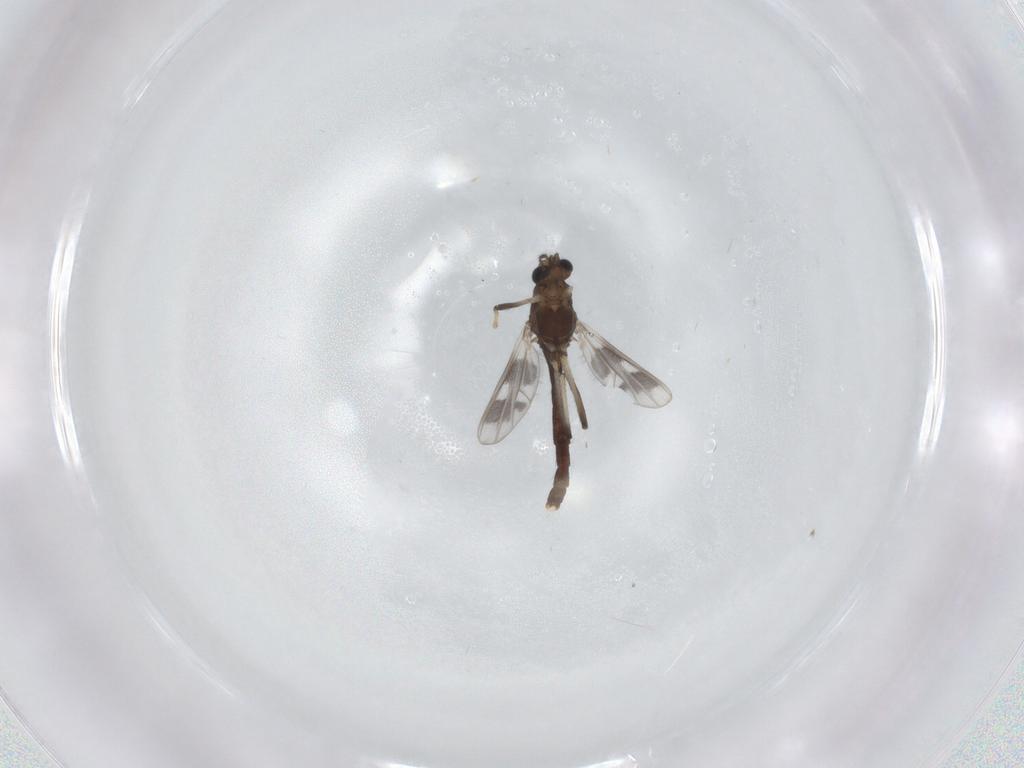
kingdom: Animalia
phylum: Arthropoda
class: Insecta
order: Diptera
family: Chironomidae
